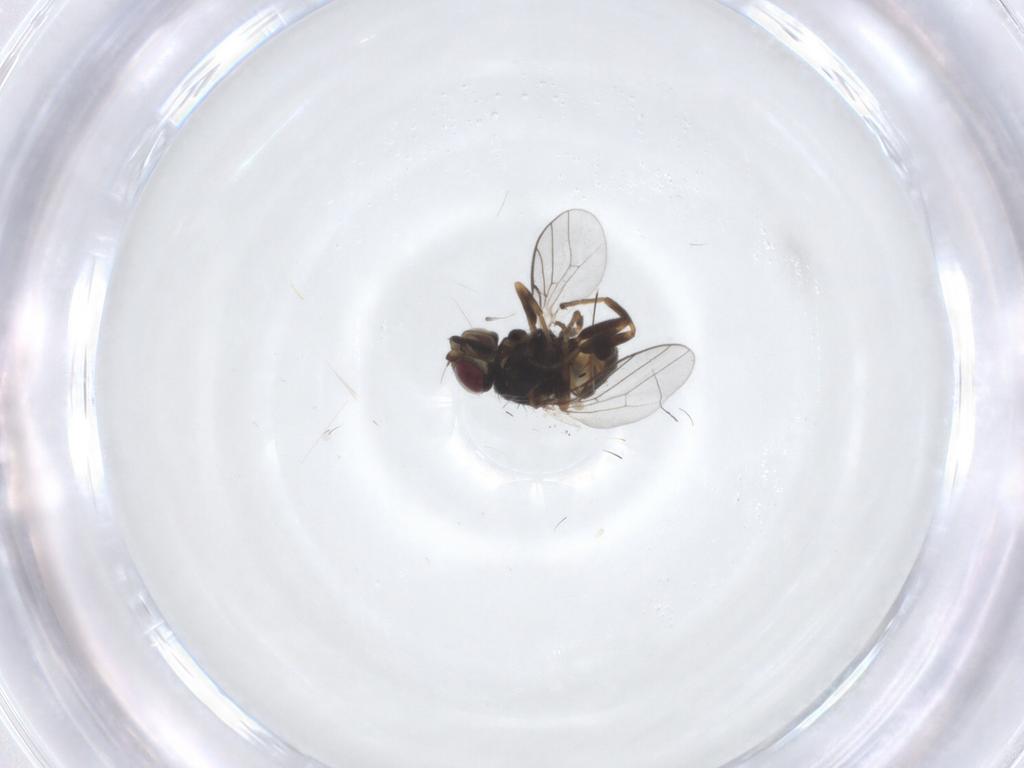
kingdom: Animalia
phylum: Arthropoda
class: Insecta
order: Diptera
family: Chloropidae
